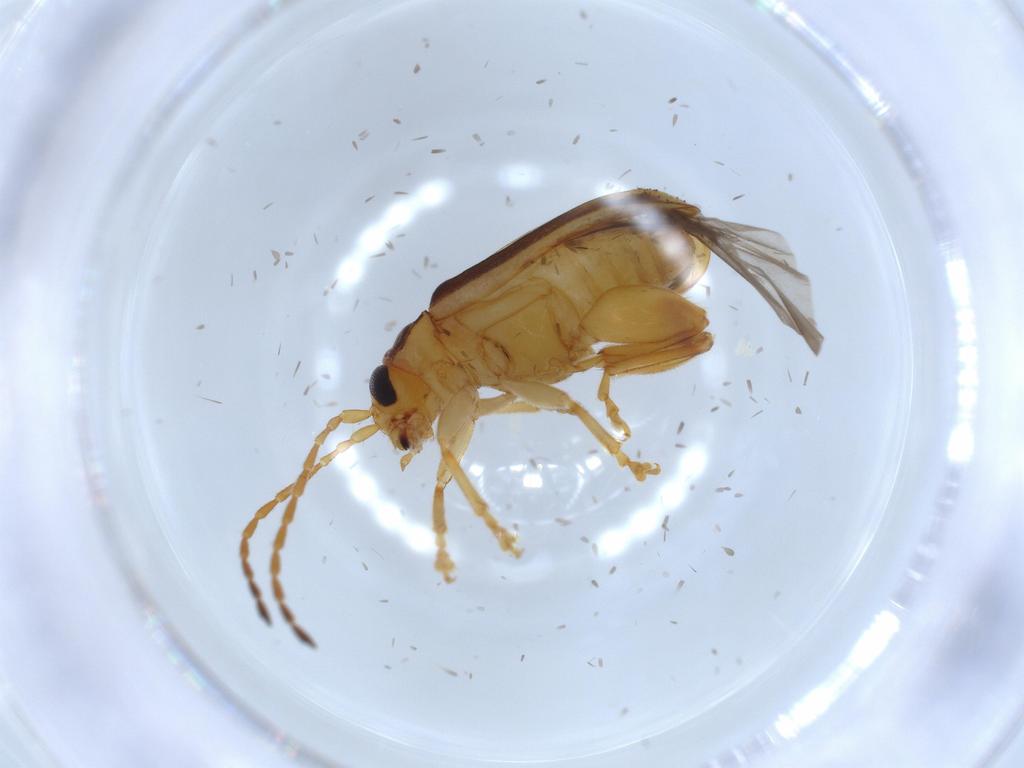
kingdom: Animalia
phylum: Arthropoda
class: Insecta
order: Coleoptera
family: Chrysomelidae
